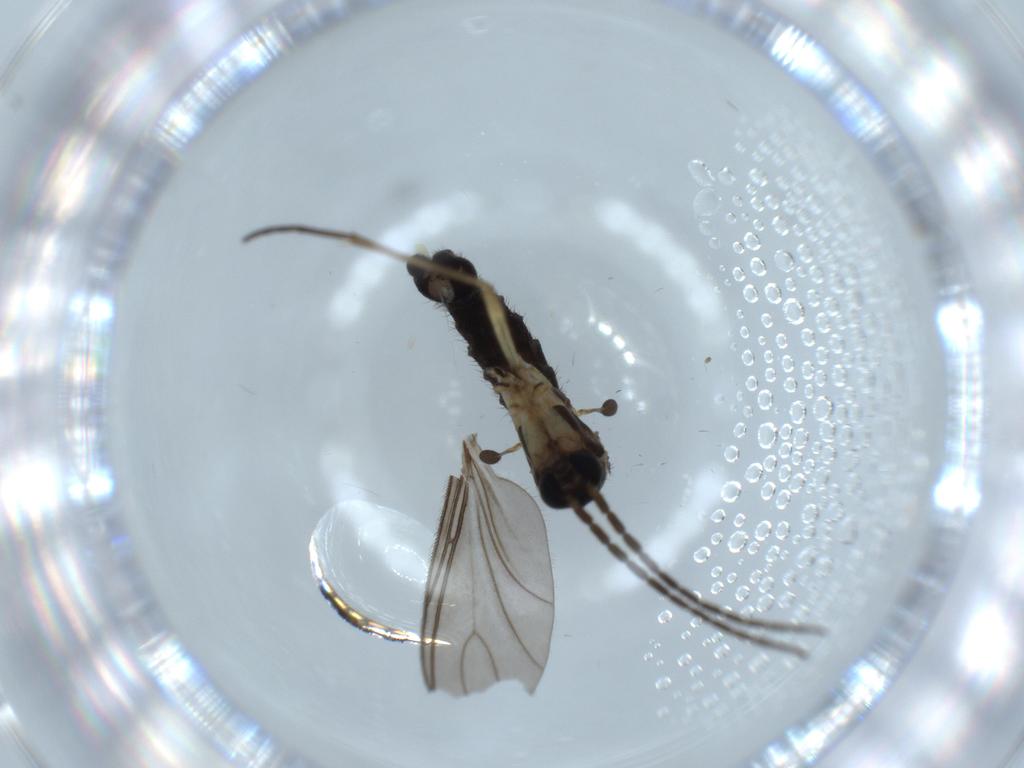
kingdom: Animalia
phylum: Arthropoda
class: Insecta
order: Diptera
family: Sciaridae
